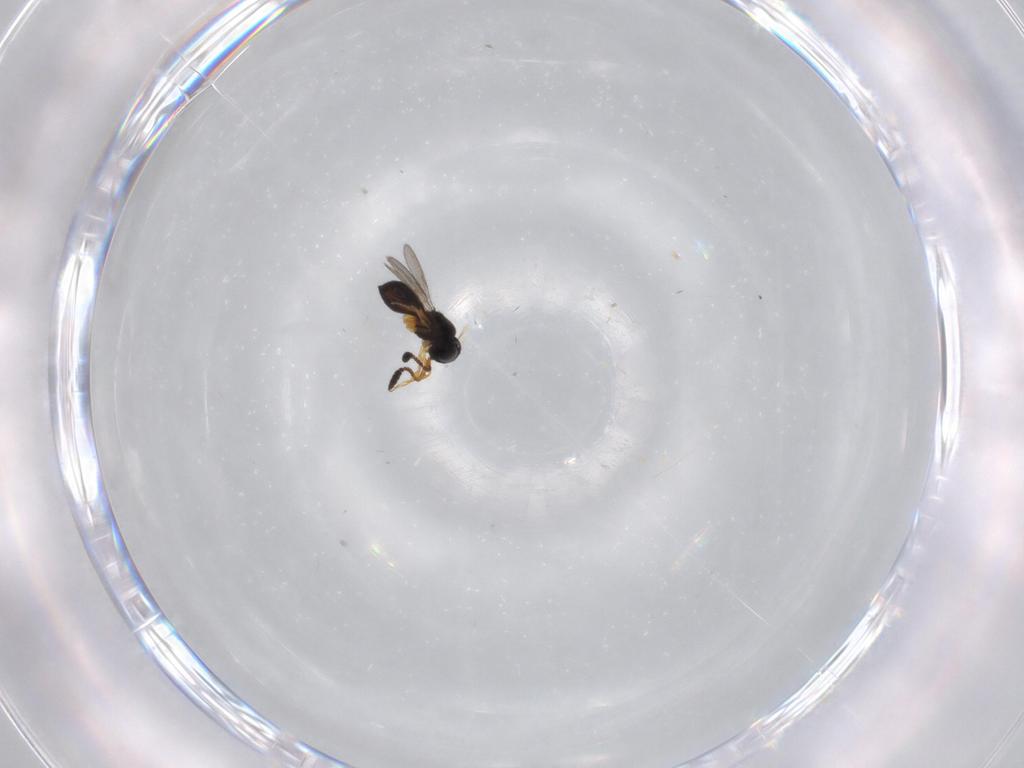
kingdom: Animalia
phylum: Arthropoda
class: Insecta
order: Hymenoptera
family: Scelionidae
